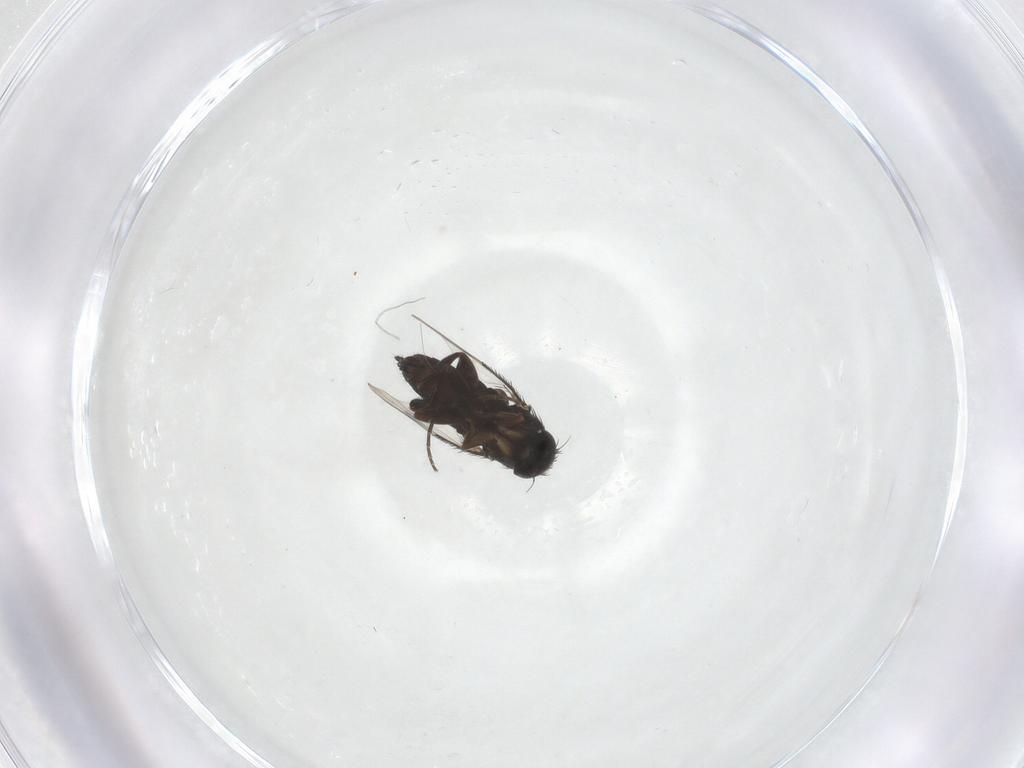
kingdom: Animalia
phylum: Arthropoda
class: Insecta
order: Diptera
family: Phoridae
